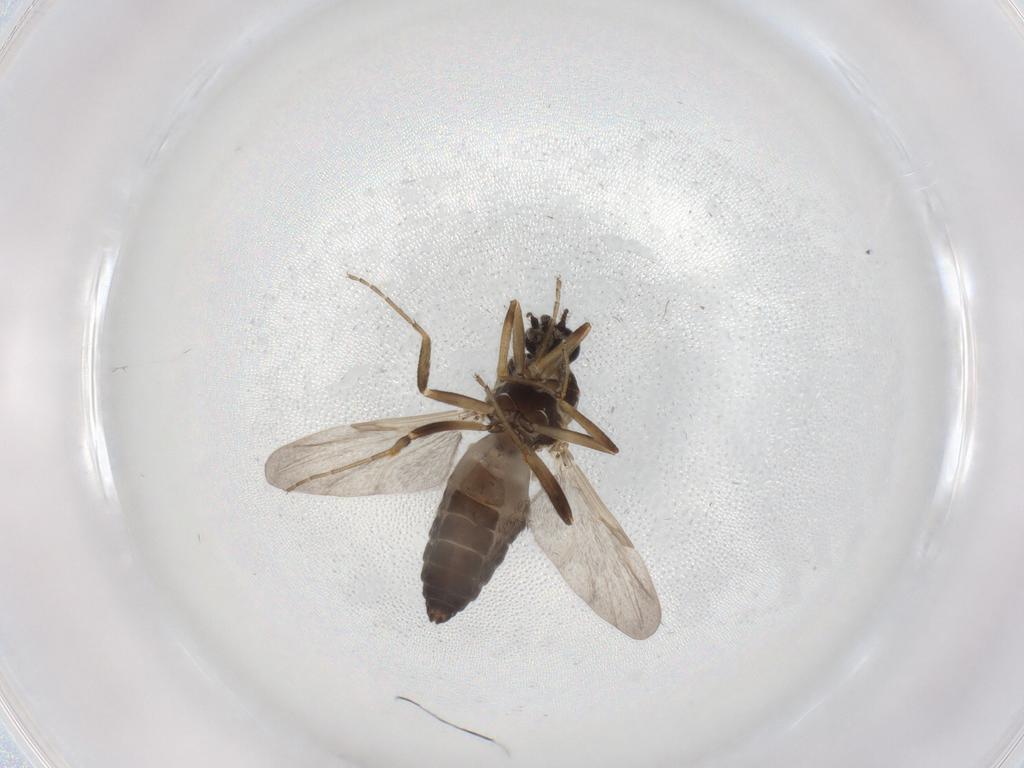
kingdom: Animalia
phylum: Arthropoda
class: Insecta
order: Diptera
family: Ceratopogonidae
